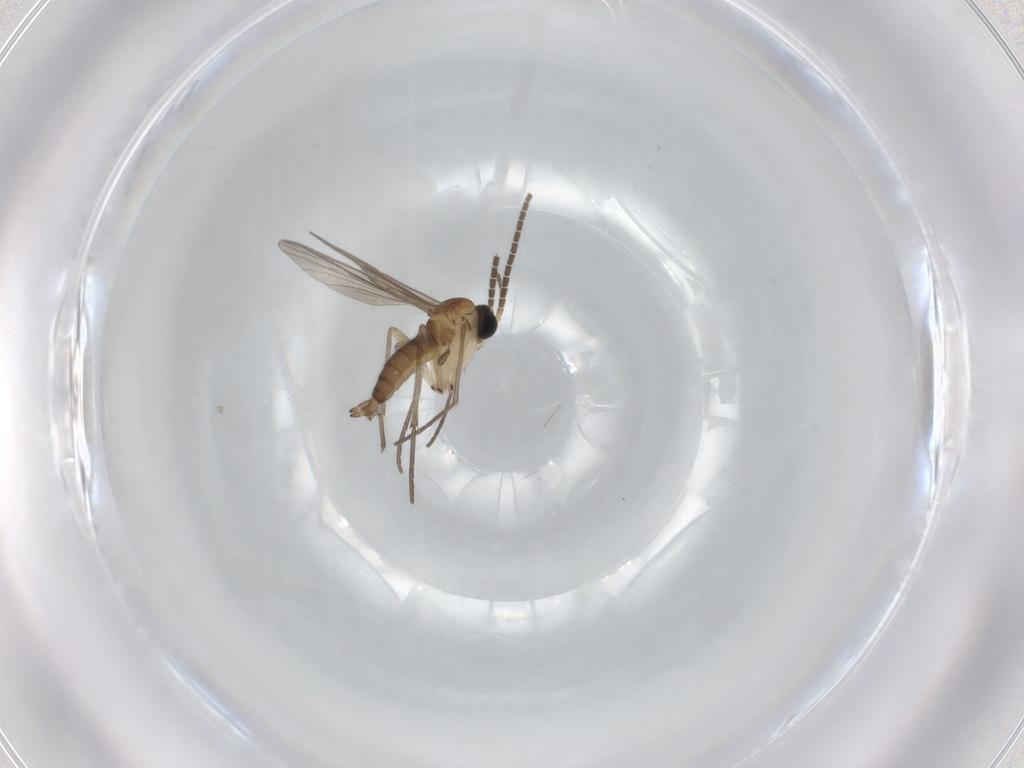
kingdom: Animalia
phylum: Arthropoda
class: Insecta
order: Diptera
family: Sciaridae
